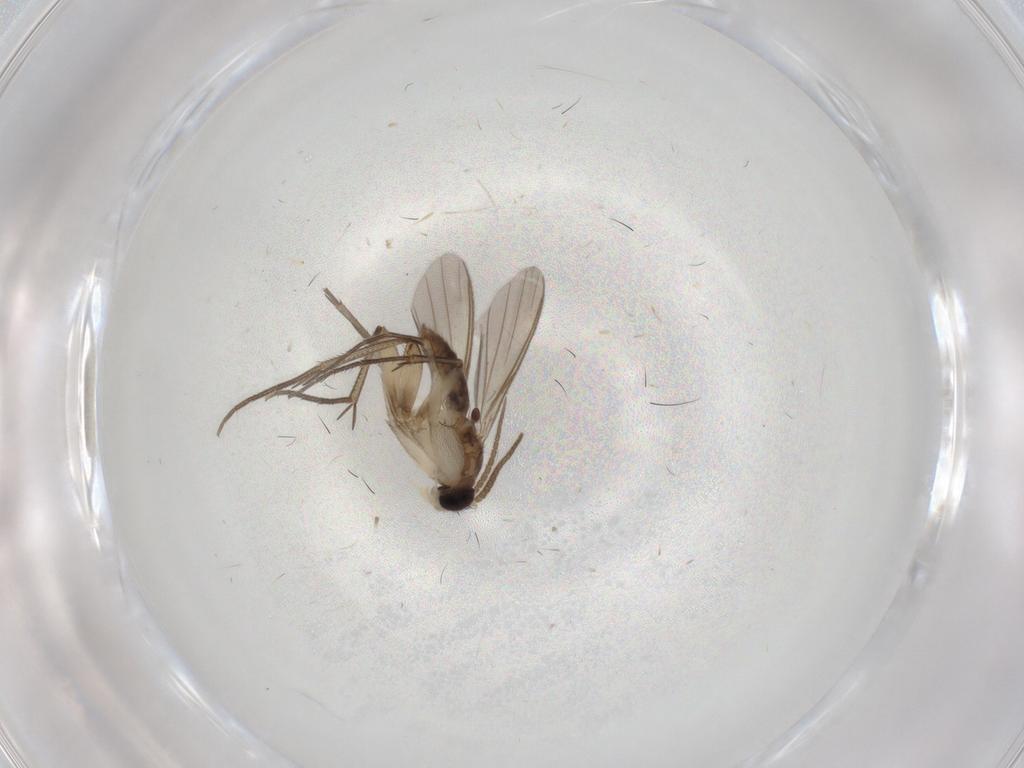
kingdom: Animalia
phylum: Arthropoda
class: Insecta
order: Diptera
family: Mycetophilidae
